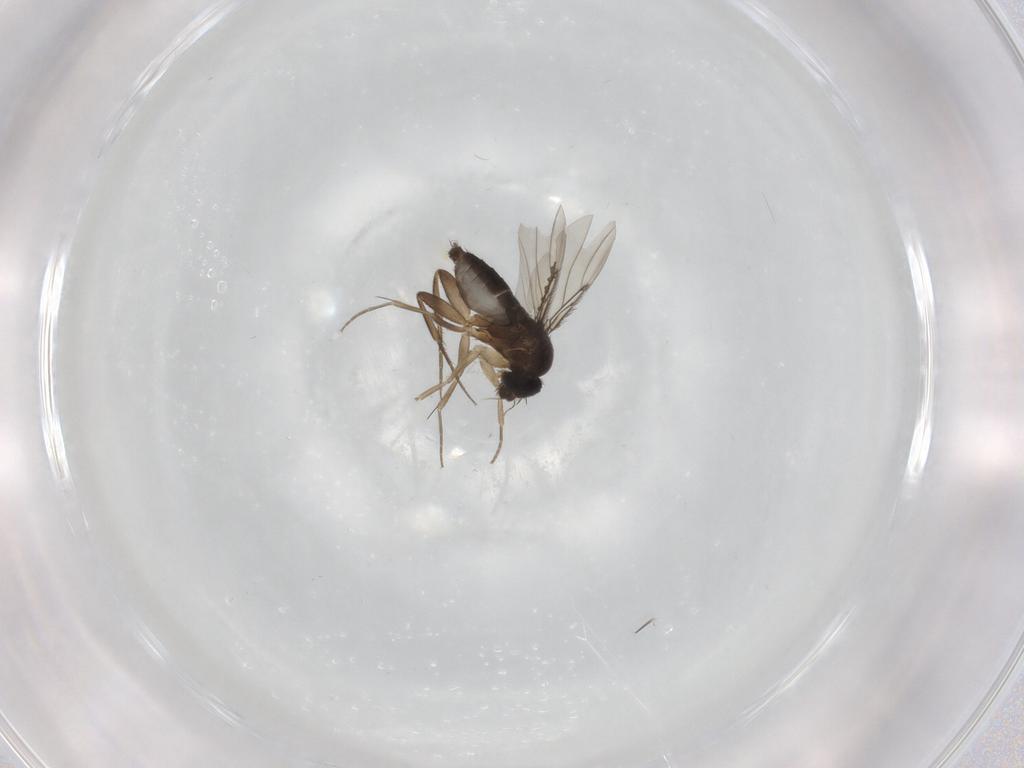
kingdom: Animalia
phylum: Arthropoda
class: Insecta
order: Diptera
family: Phoridae
